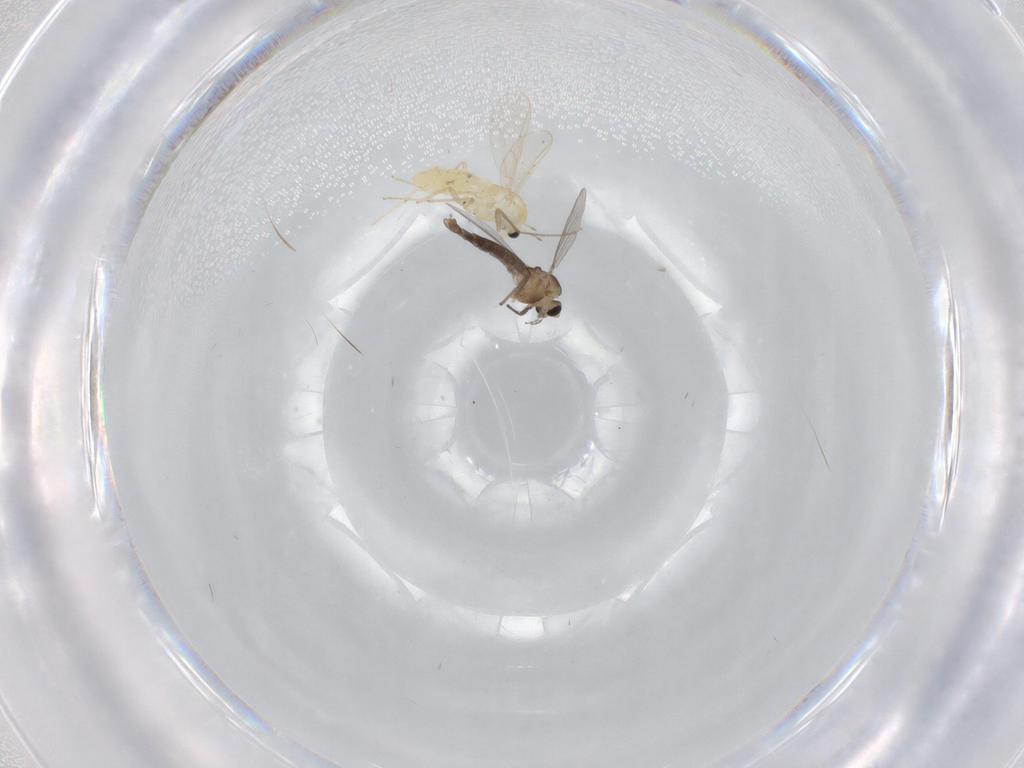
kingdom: Animalia
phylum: Arthropoda
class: Insecta
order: Diptera
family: Chironomidae
